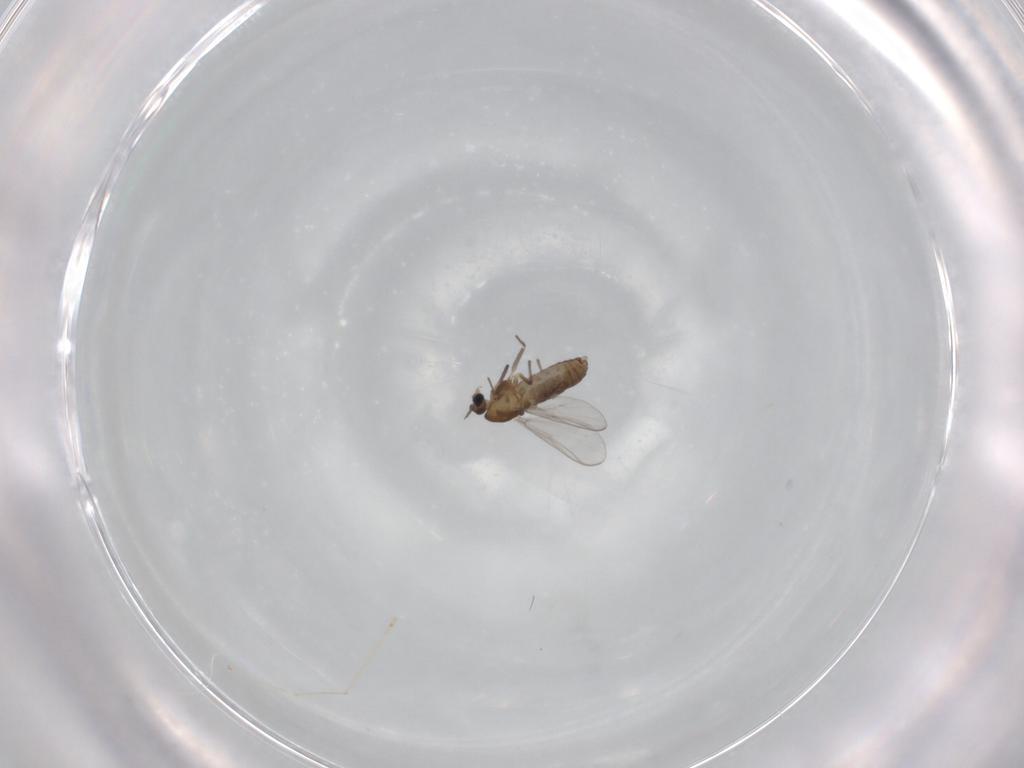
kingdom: Animalia
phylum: Arthropoda
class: Insecta
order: Diptera
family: Chironomidae
